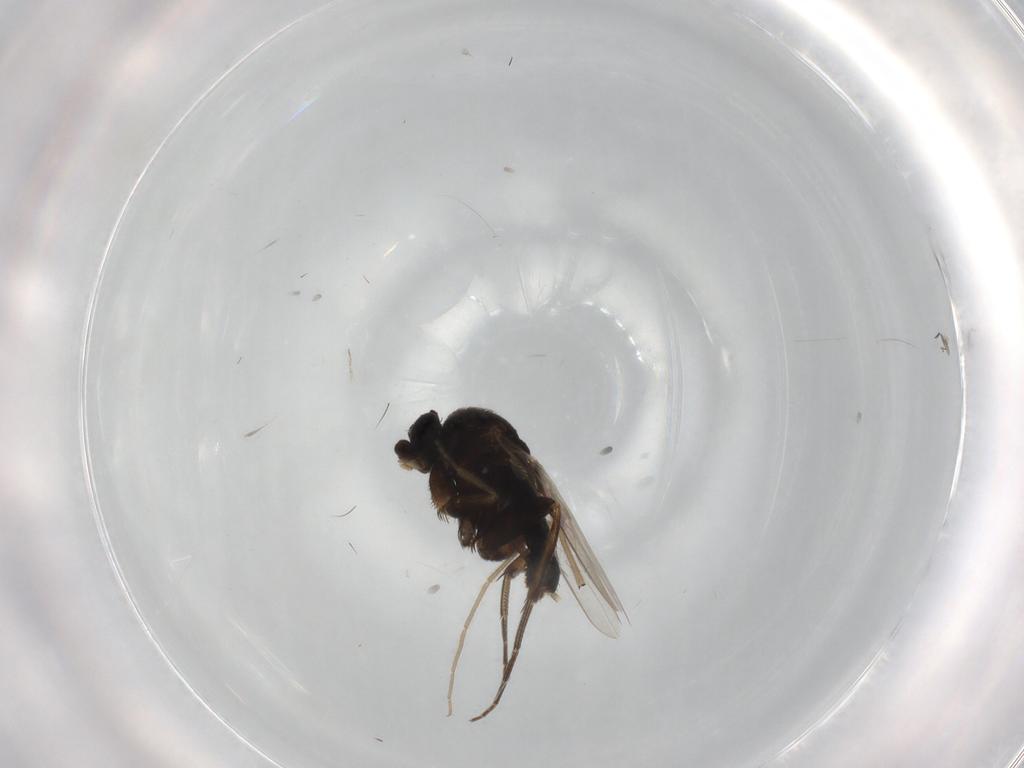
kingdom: Animalia
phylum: Arthropoda
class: Insecta
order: Diptera
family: Phoridae
